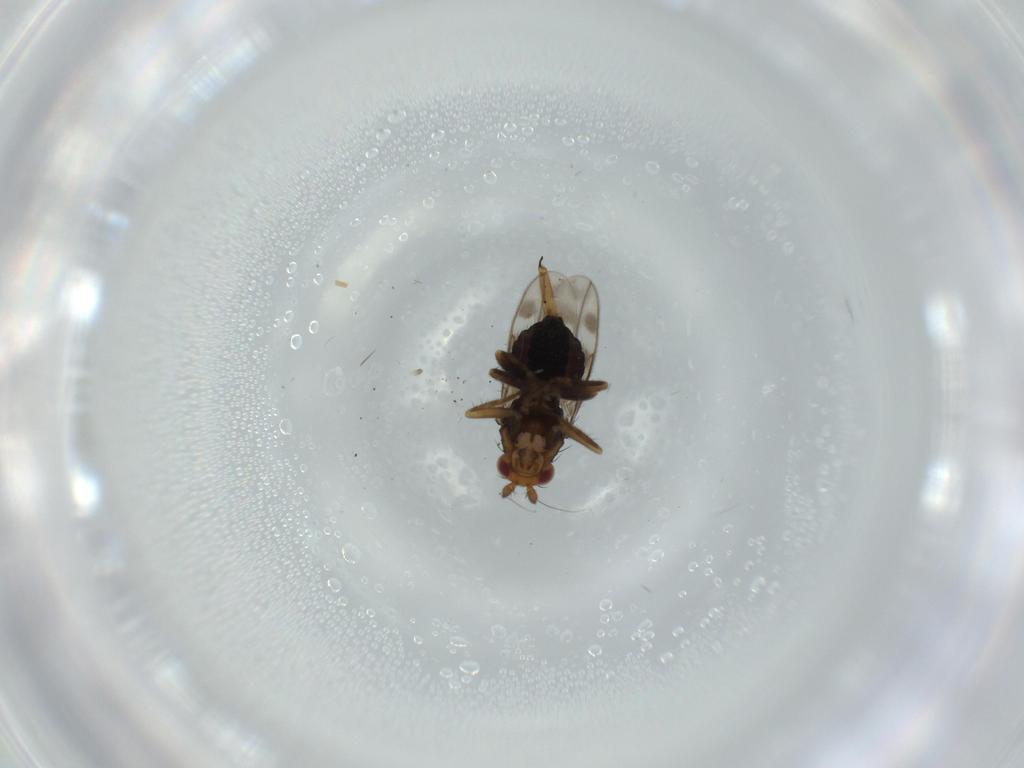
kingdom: Animalia
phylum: Arthropoda
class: Insecta
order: Diptera
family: Sphaeroceridae
